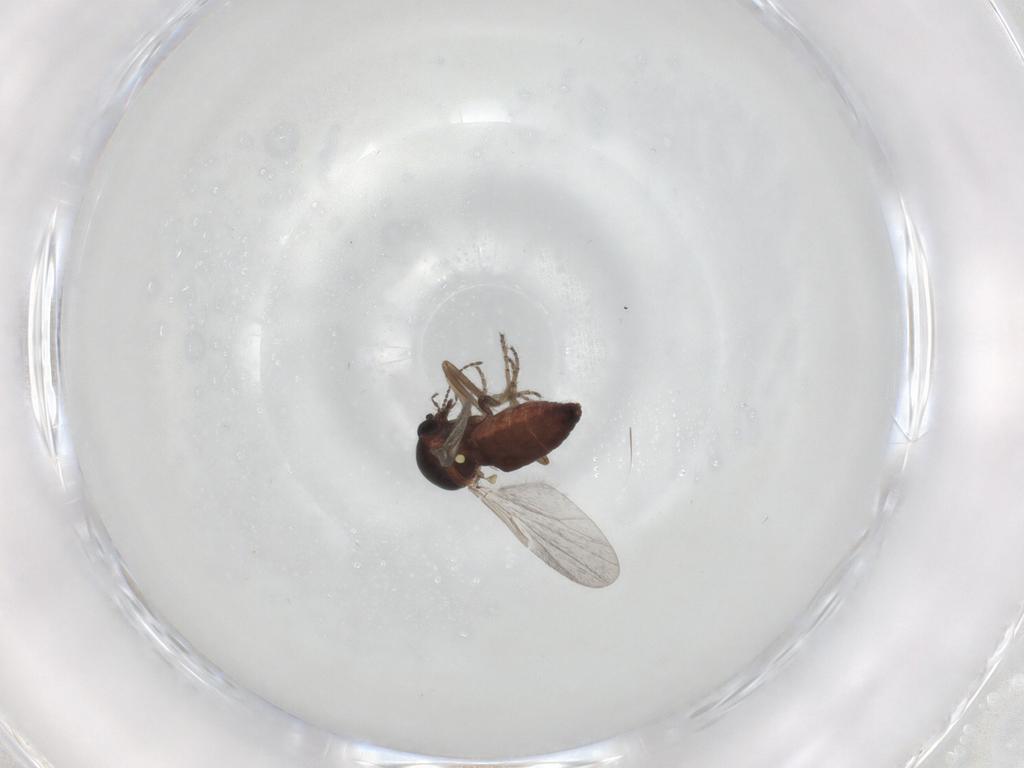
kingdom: Animalia
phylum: Arthropoda
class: Insecta
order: Diptera
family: Ceratopogonidae
